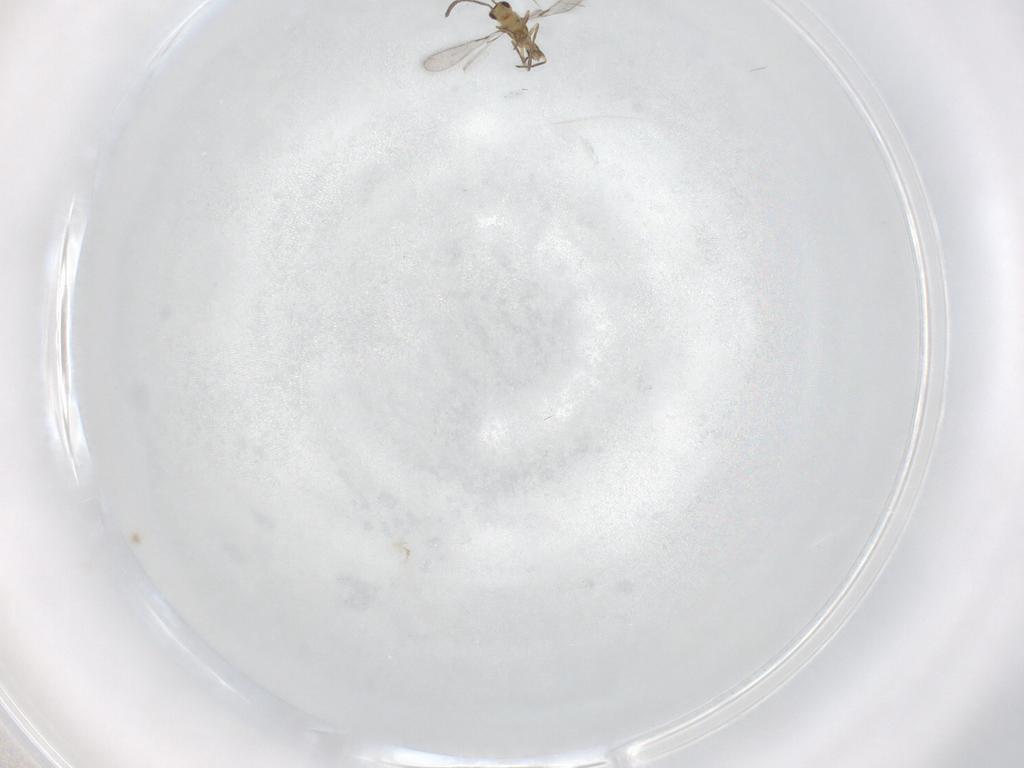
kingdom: Animalia
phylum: Arthropoda
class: Insecta
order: Hymenoptera
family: Mymaridae
